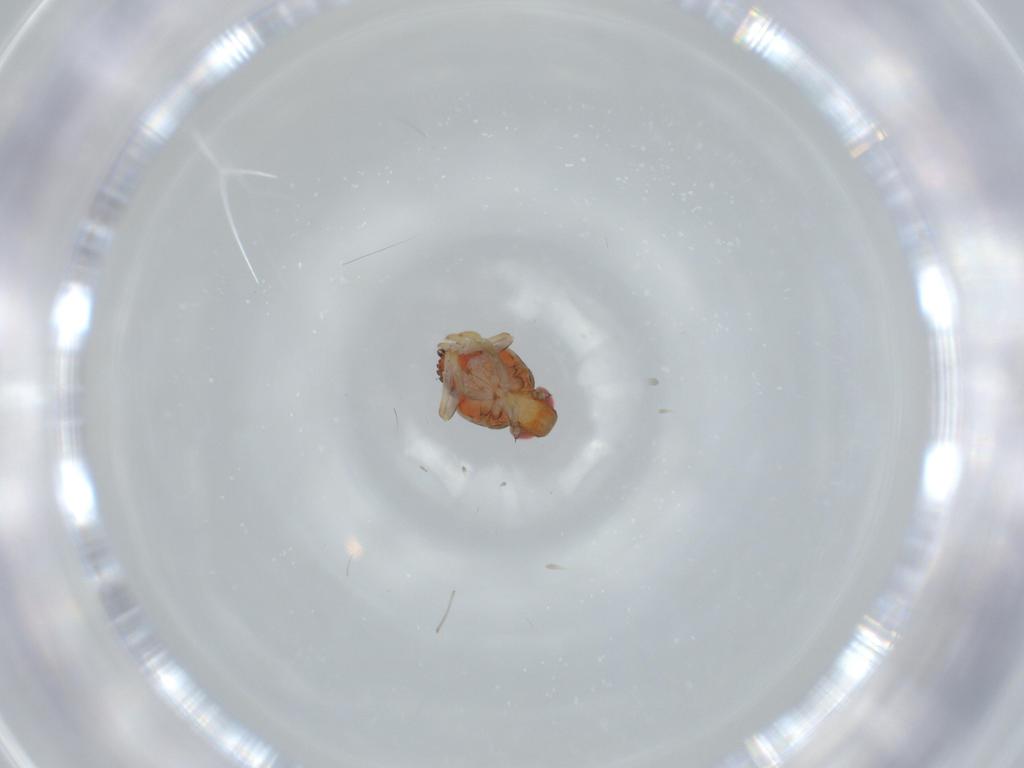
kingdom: Animalia
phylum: Arthropoda
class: Insecta
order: Hemiptera
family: Issidae
